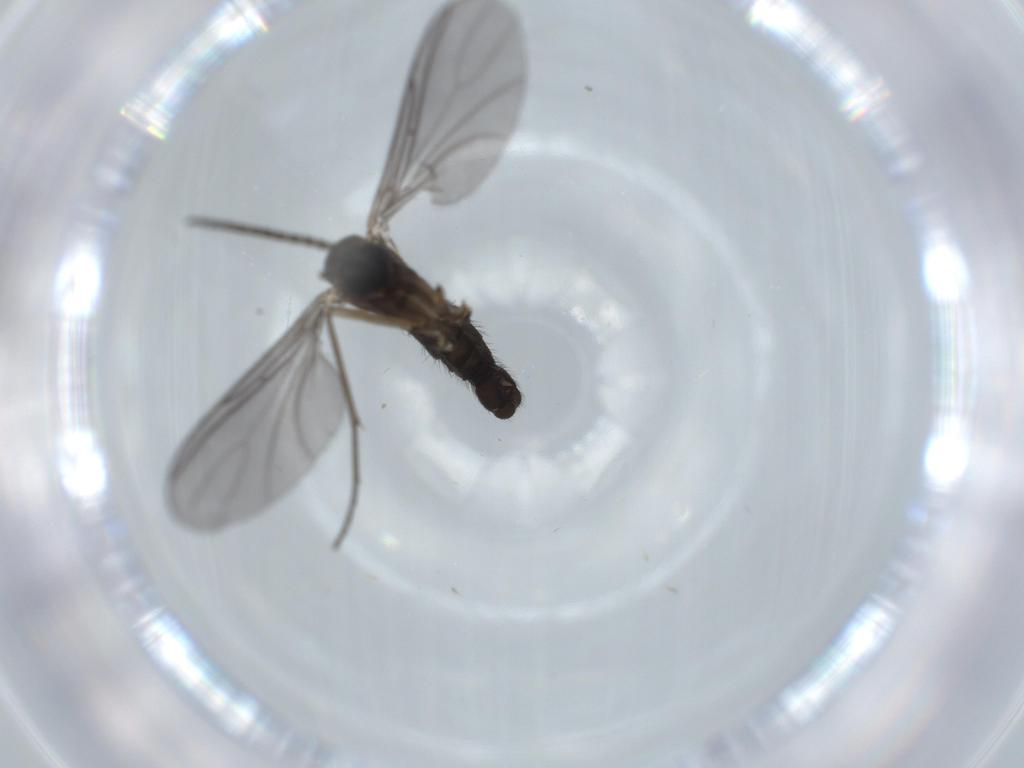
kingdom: Animalia
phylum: Arthropoda
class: Insecta
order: Diptera
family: Sciaridae
